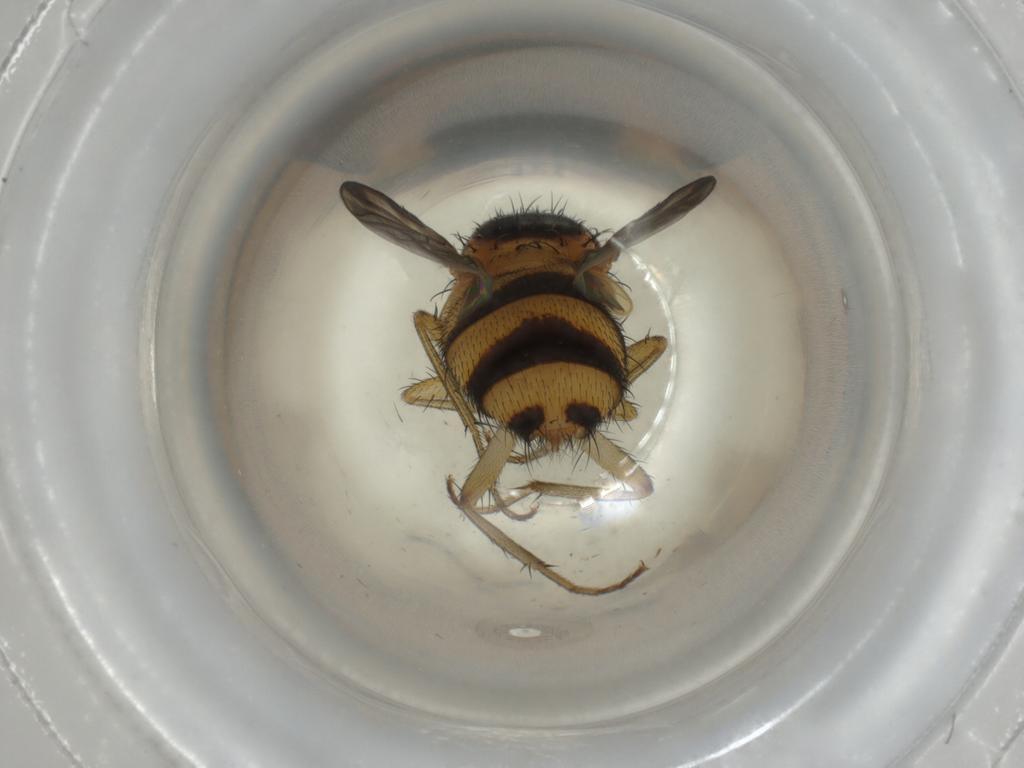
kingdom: Animalia
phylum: Arthropoda
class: Insecta
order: Diptera
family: Calliphoridae
